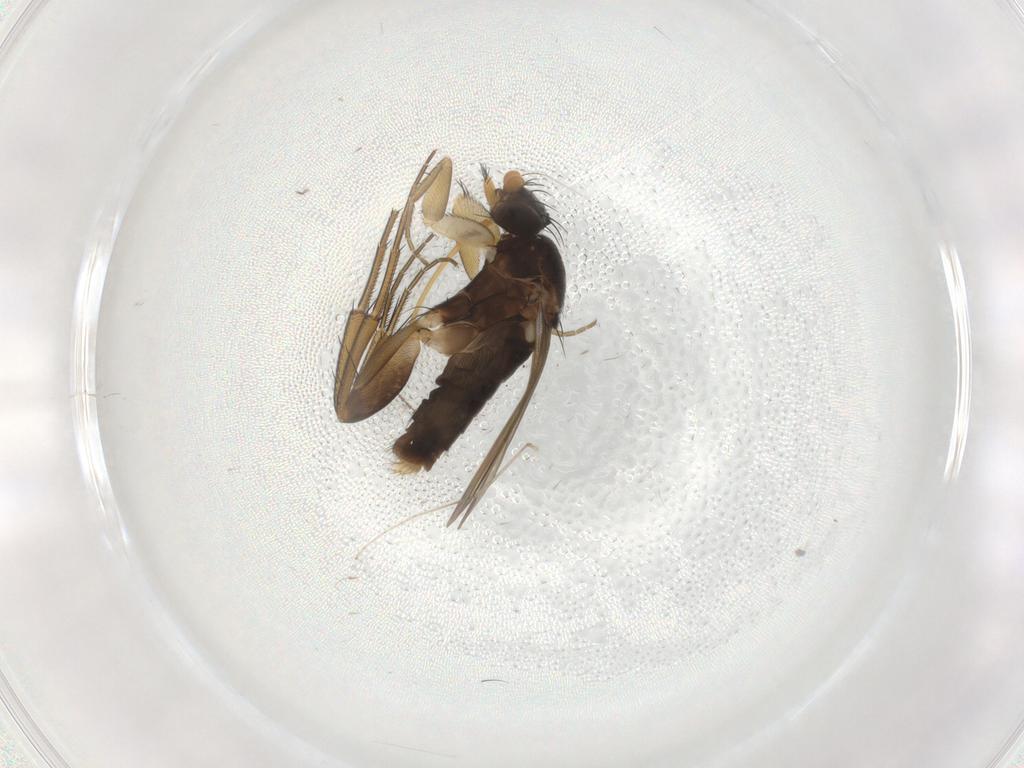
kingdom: Animalia
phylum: Arthropoda
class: Insecta
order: Diptera
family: Phoridae
